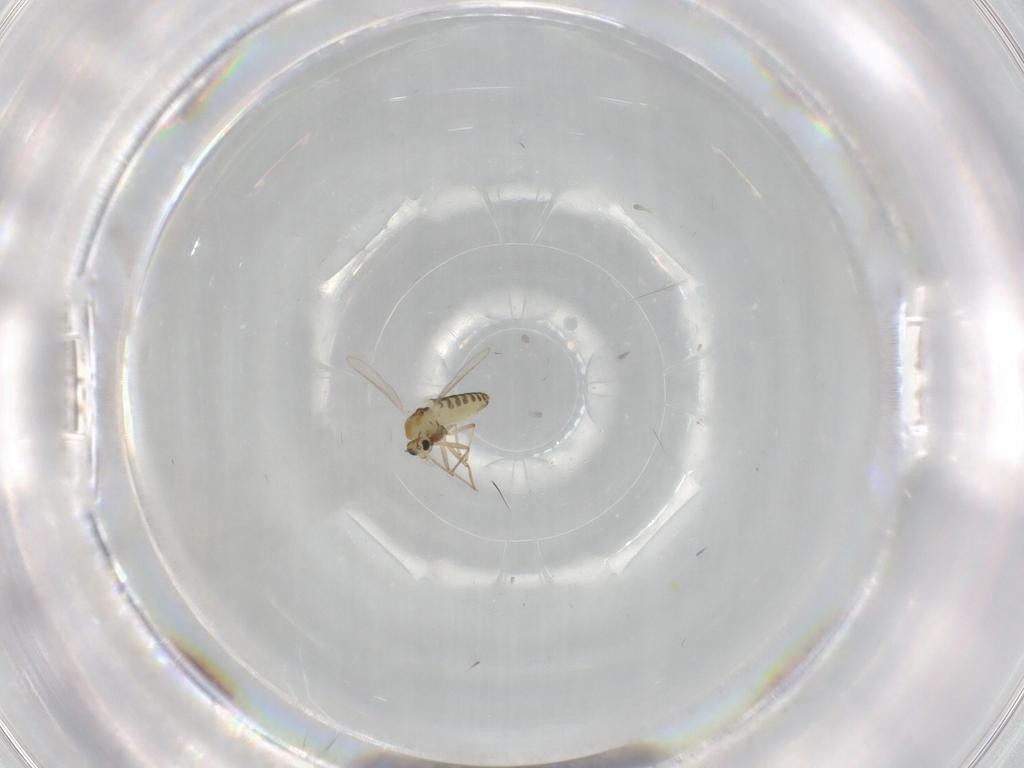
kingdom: Animalia
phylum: Arthropoda
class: Insecta
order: Diptera
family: Chironomidae
